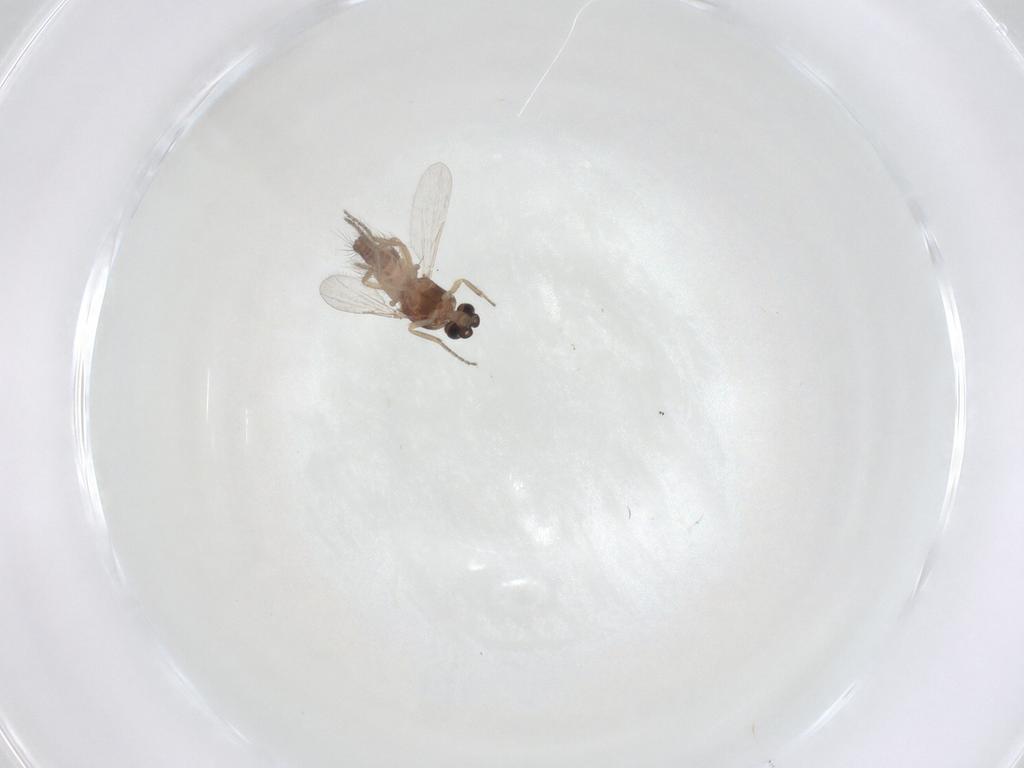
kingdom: Animalia
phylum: Arthropoda
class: Insecta
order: Diptera
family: Ceratopogonidae
